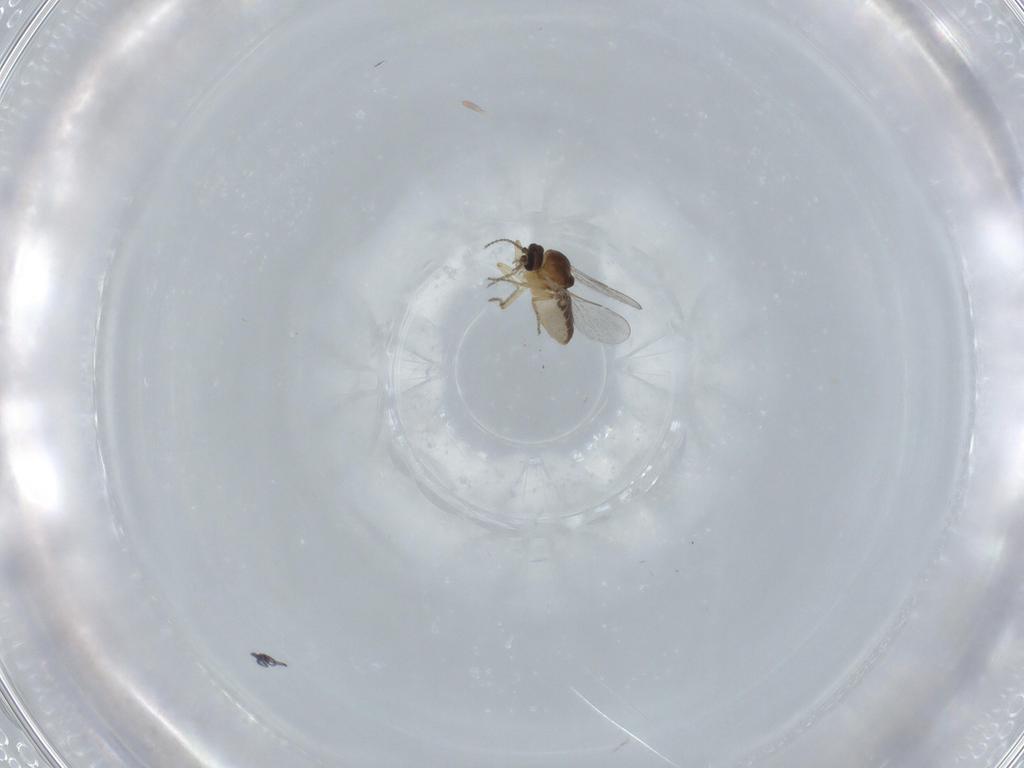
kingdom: Animalia
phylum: Arthropoda
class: Insecta
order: Diptera
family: Ceratopogonidae
